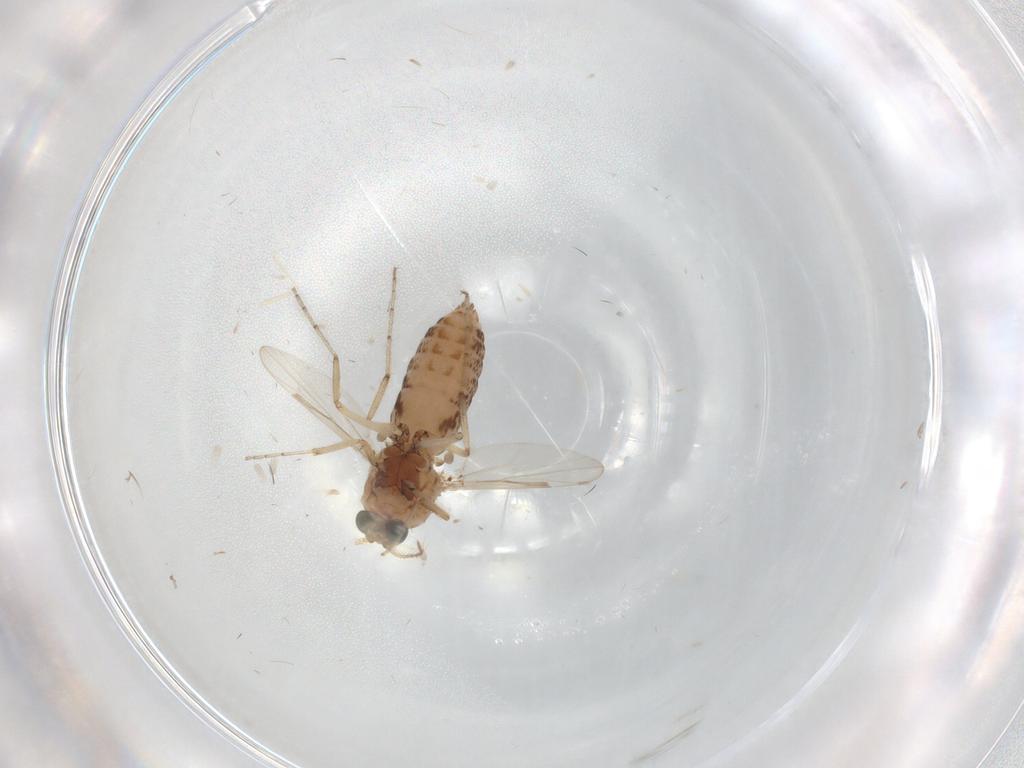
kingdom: Animalia
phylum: Arthropoda
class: Insecta
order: Diptera
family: Ceratopogonidae
